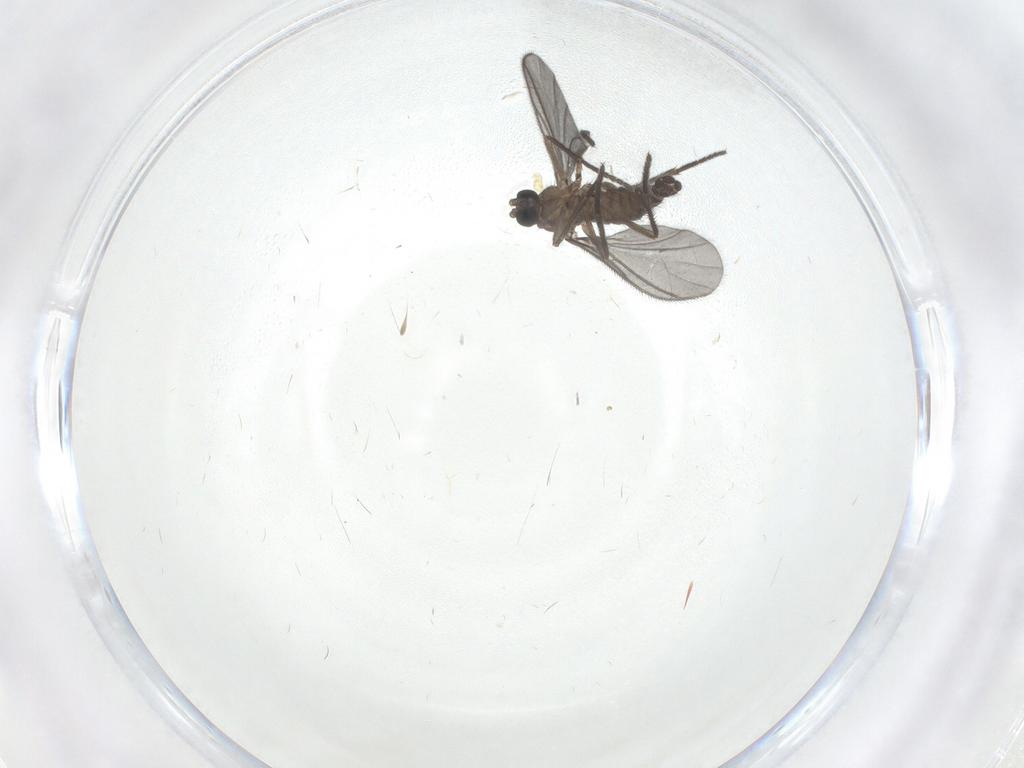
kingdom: Animalia
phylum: Arthropoda
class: Insecta
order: Diptera
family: Sciaridae
